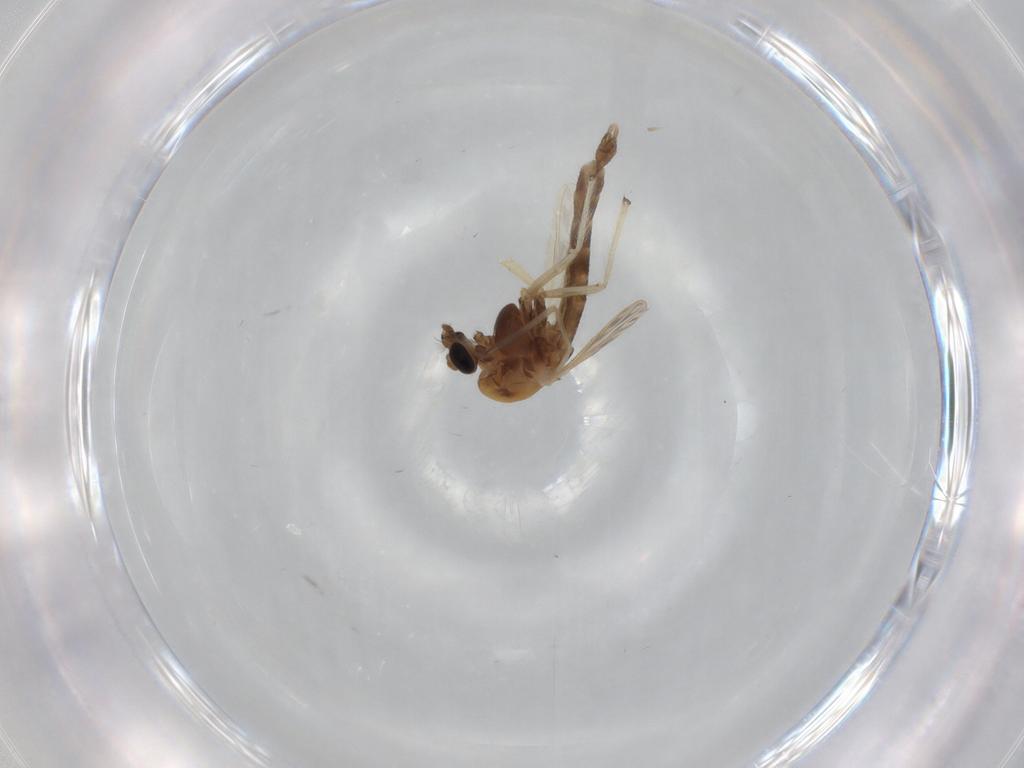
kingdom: Animalia
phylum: Arthropoda
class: Insecta
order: Diptera
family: Chironomidae
